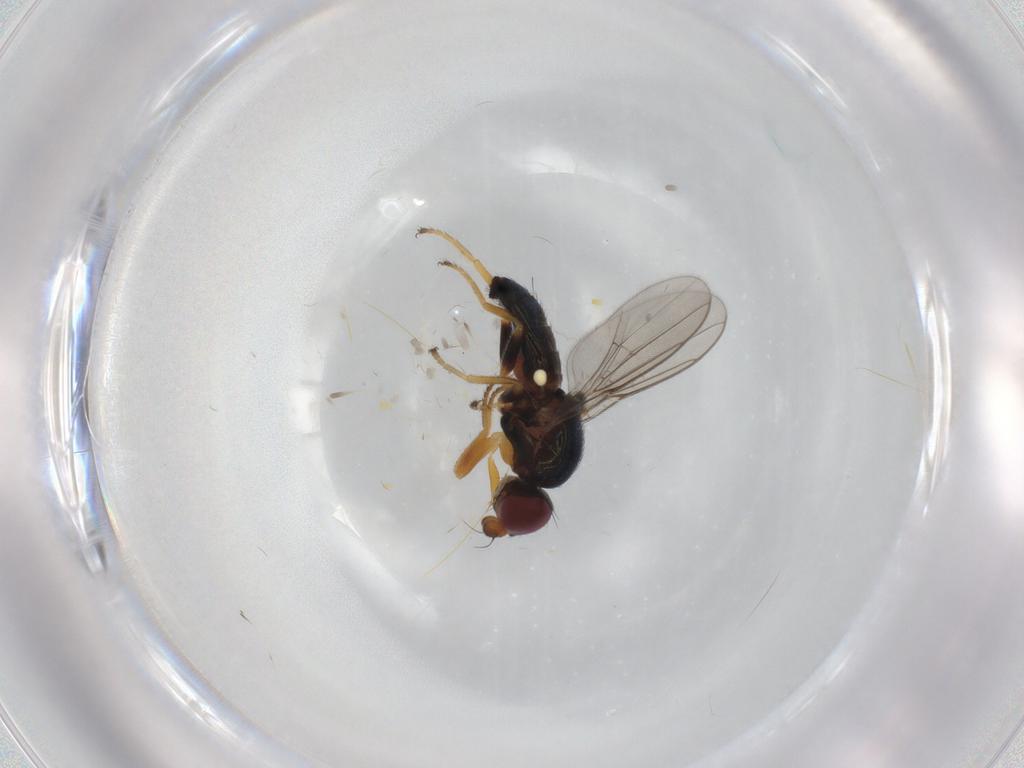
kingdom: Animalia
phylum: Arthropoda
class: Insecta
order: Diptera
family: Chloropidae
